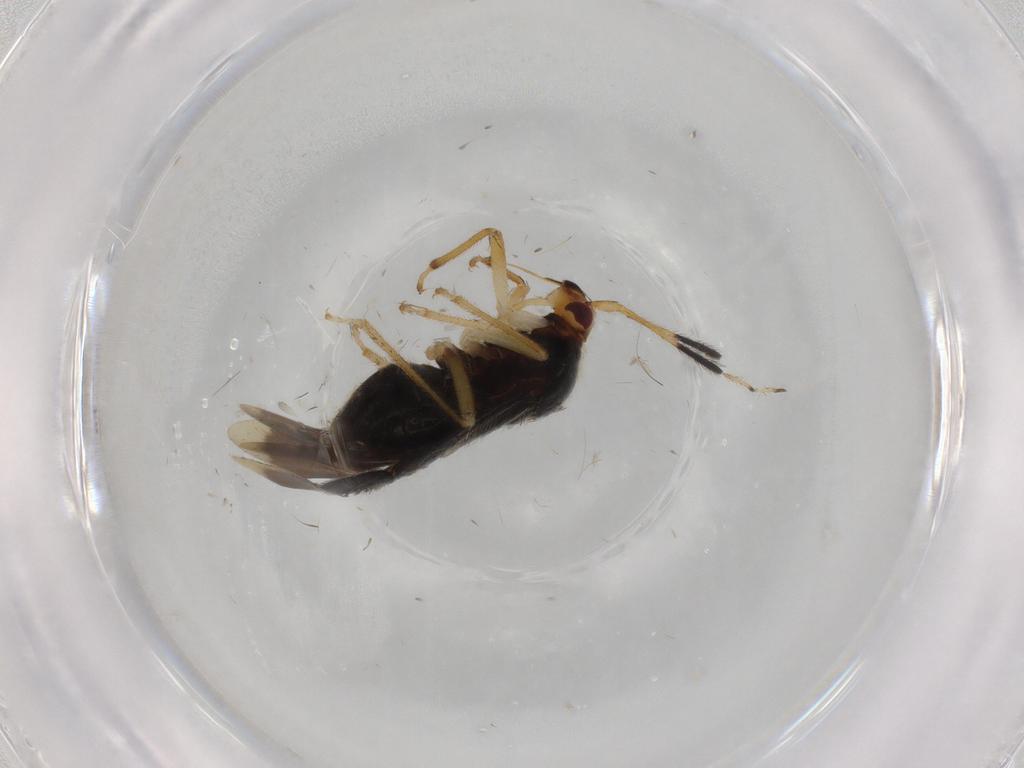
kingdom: Animalia
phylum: Arthropoda
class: Insecta
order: Hemiptera
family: Miridae
